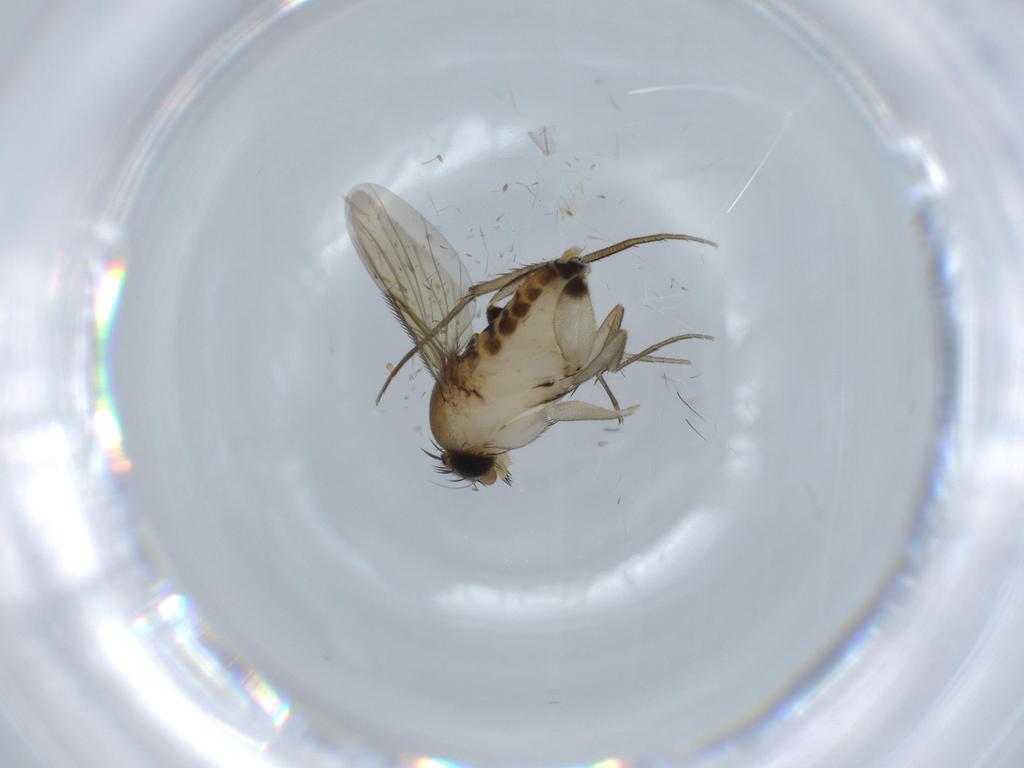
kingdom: Animalia
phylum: Arthropoda
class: Insecta
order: Diptera
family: Phoridae
